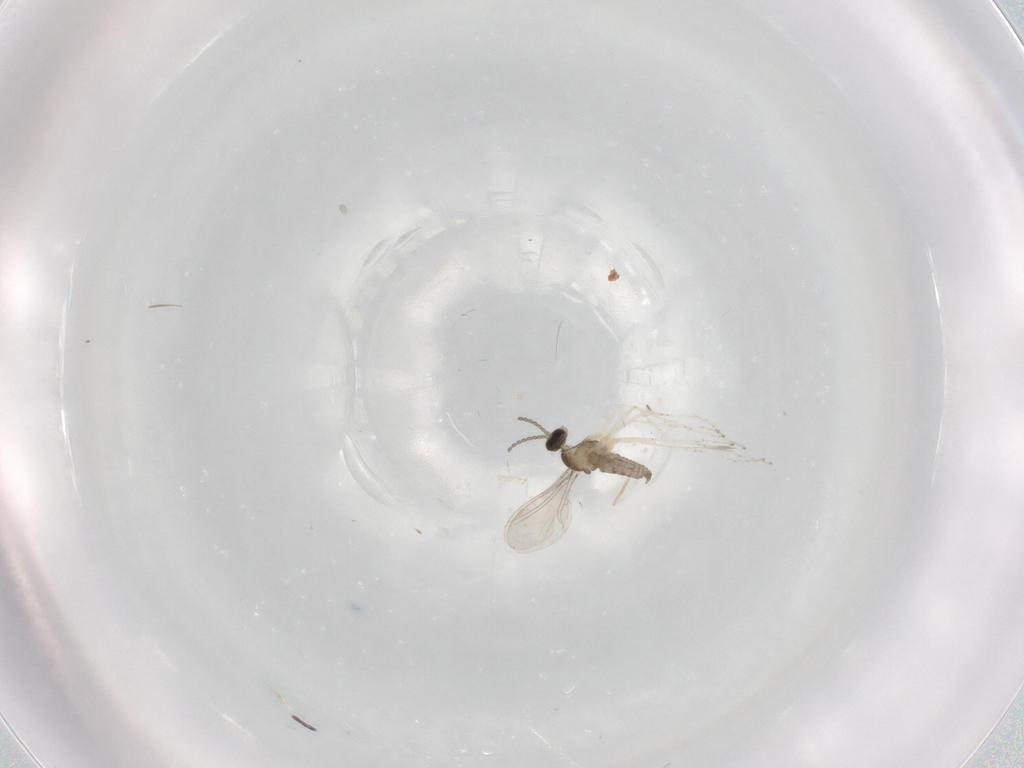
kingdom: Animalia
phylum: Arthropoda
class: Insecta
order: Diptera
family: Cecidomyiidae
